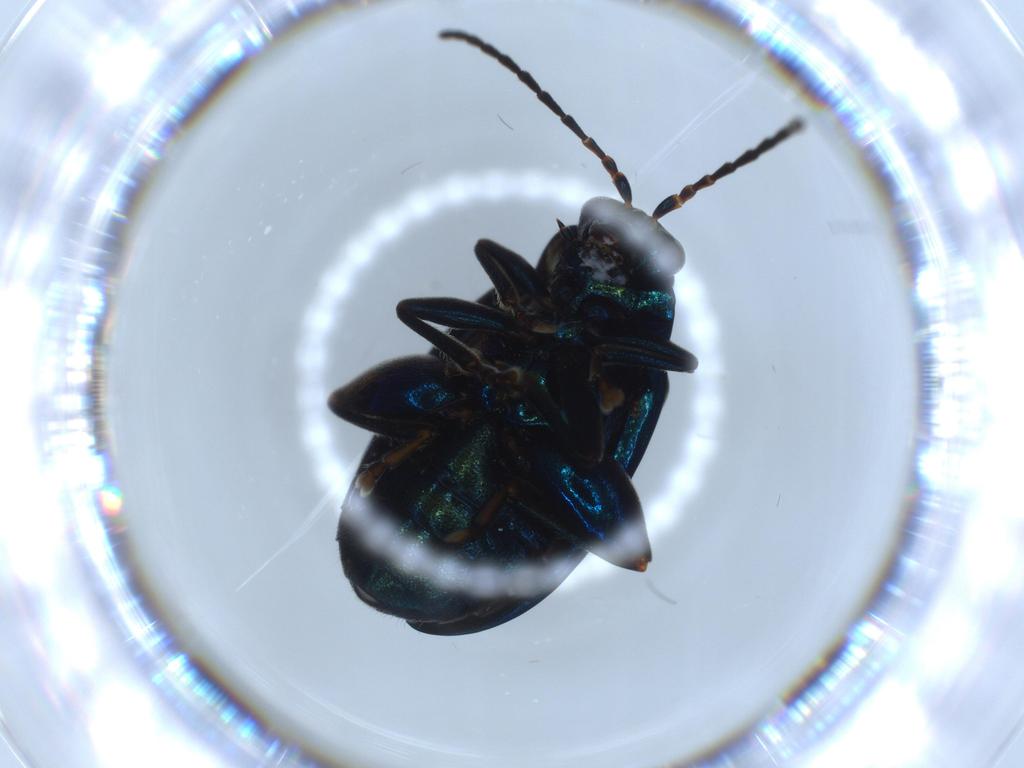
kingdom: Animalia
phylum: Arthropoda
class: Insecta
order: Coleoptera
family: Chrysomelidae
